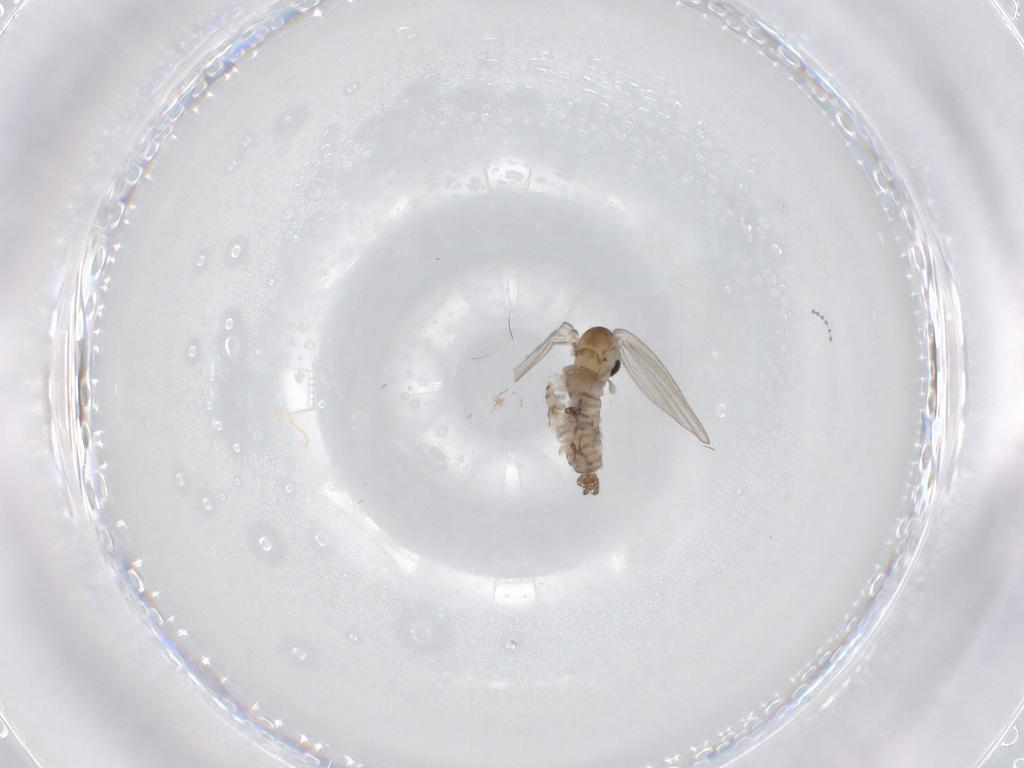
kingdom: Animalia
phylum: Arthropoda
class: Insecta
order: Diptera
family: Psychodidae
